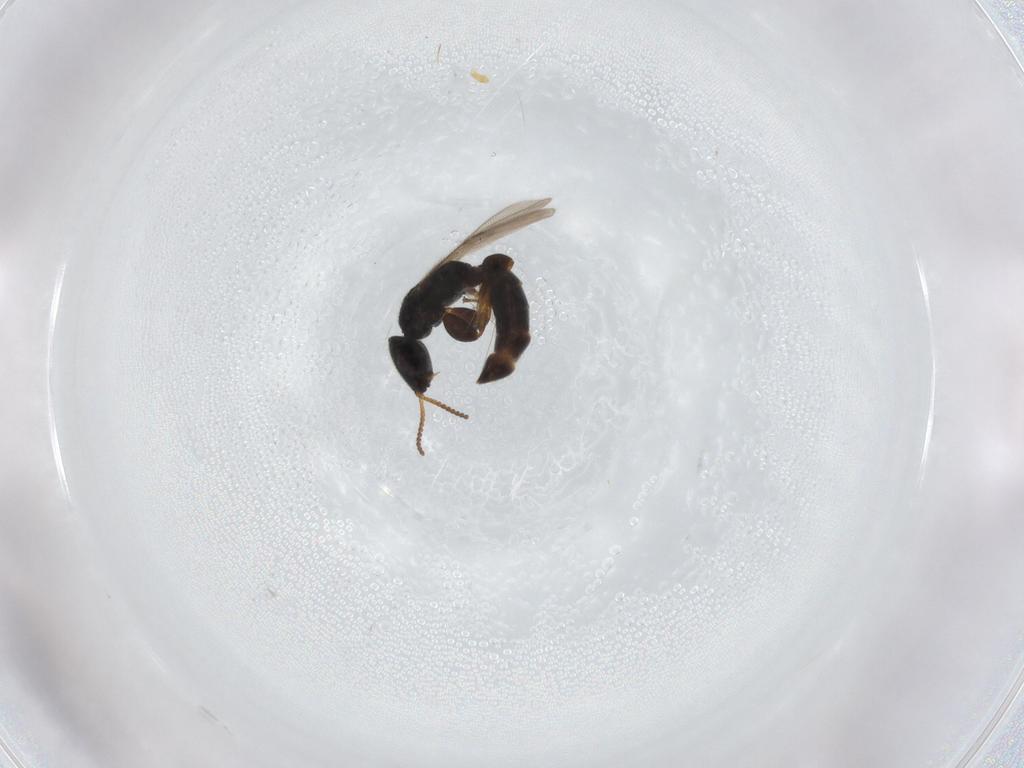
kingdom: Animalia
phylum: Arthropoda
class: Insecta
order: Hymenoptera
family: Bethylidae
